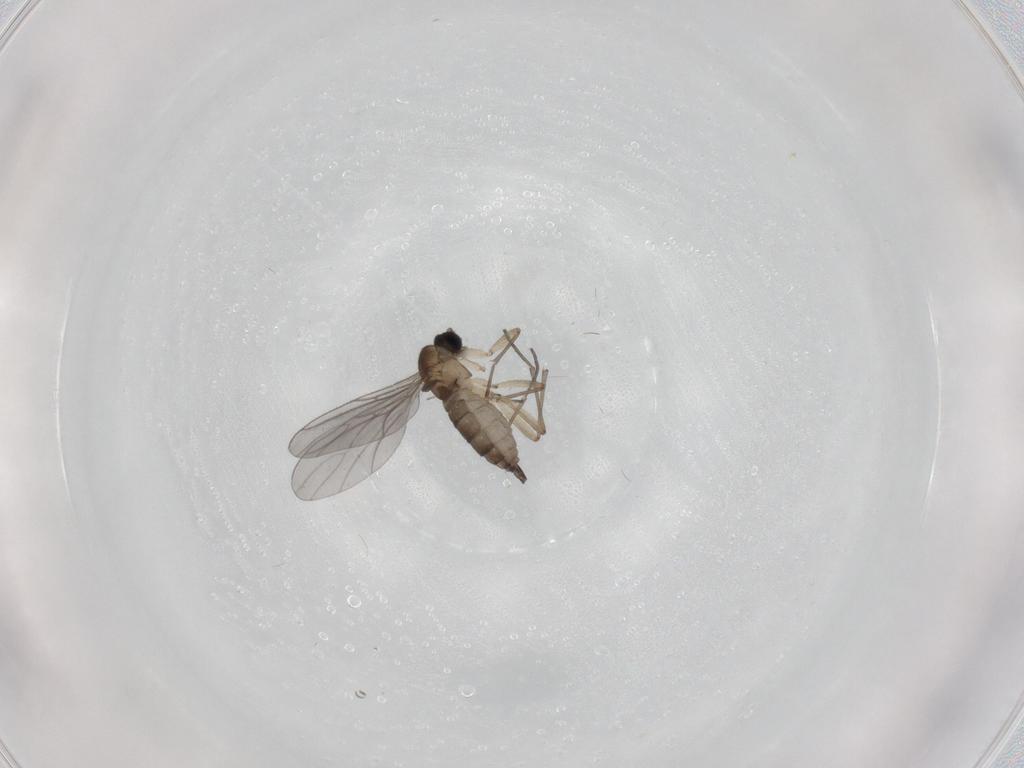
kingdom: Animalia
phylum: Arthropoda
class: Insecta
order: Diptera
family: Sciaridae
